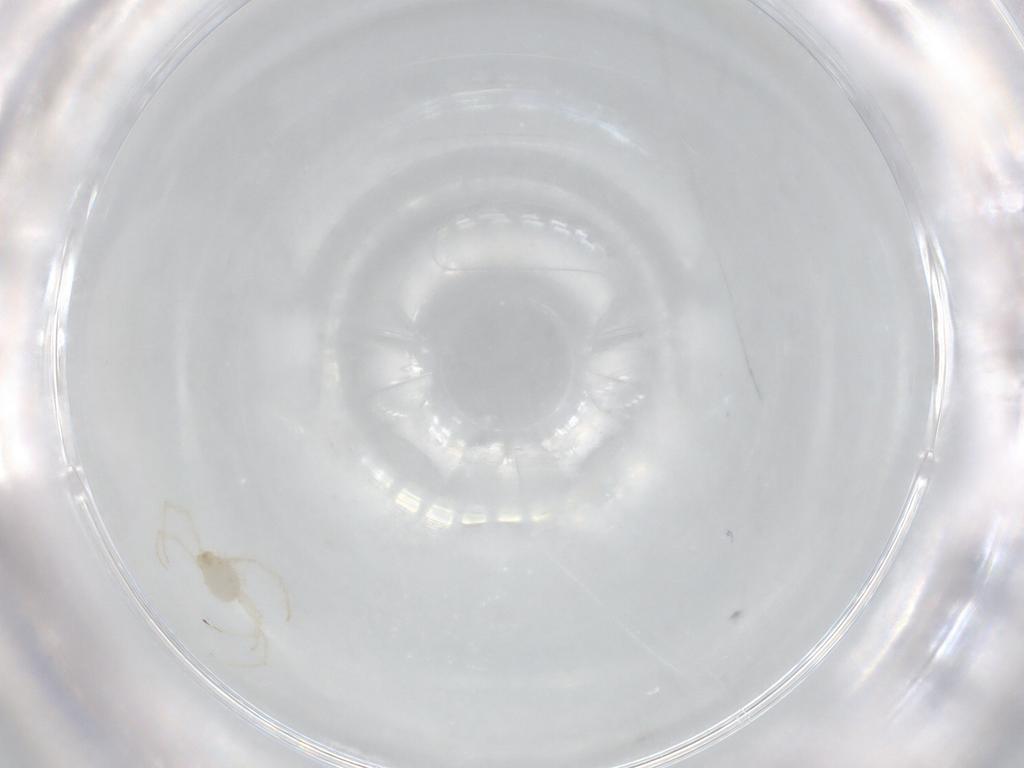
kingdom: Animalia
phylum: Arthropoda
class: Arachnida
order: Trombidiformes
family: Erythraeidae
